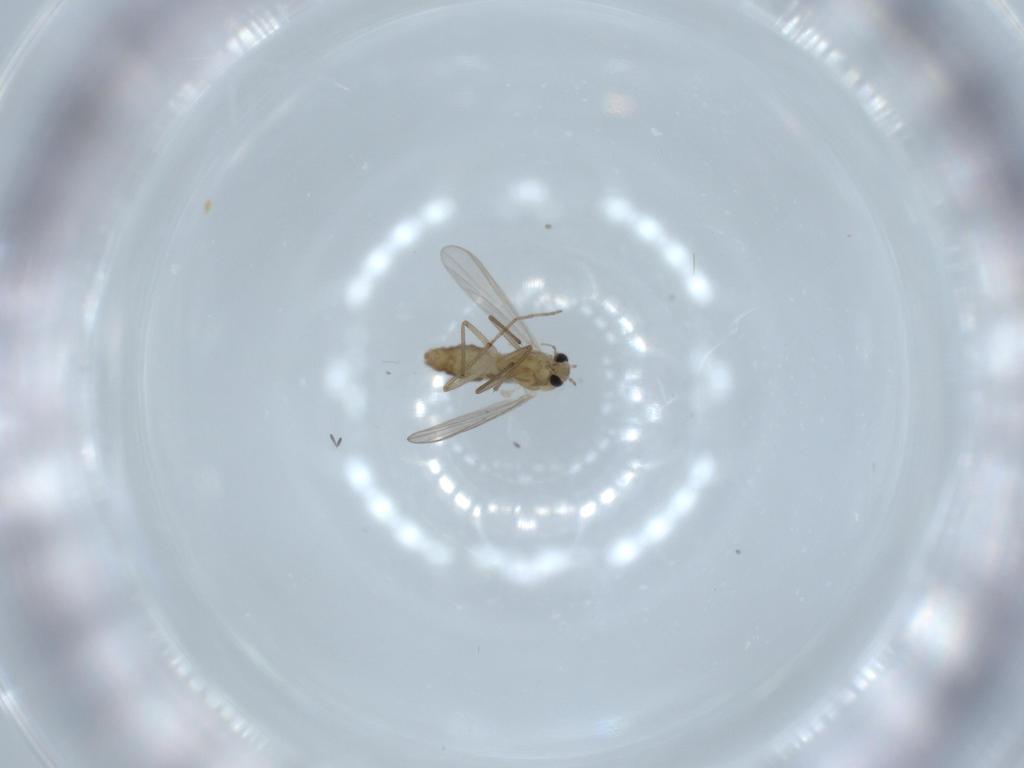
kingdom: Animalia
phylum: Arthropoda
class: Insecta
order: Diptera
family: Chironomidae
